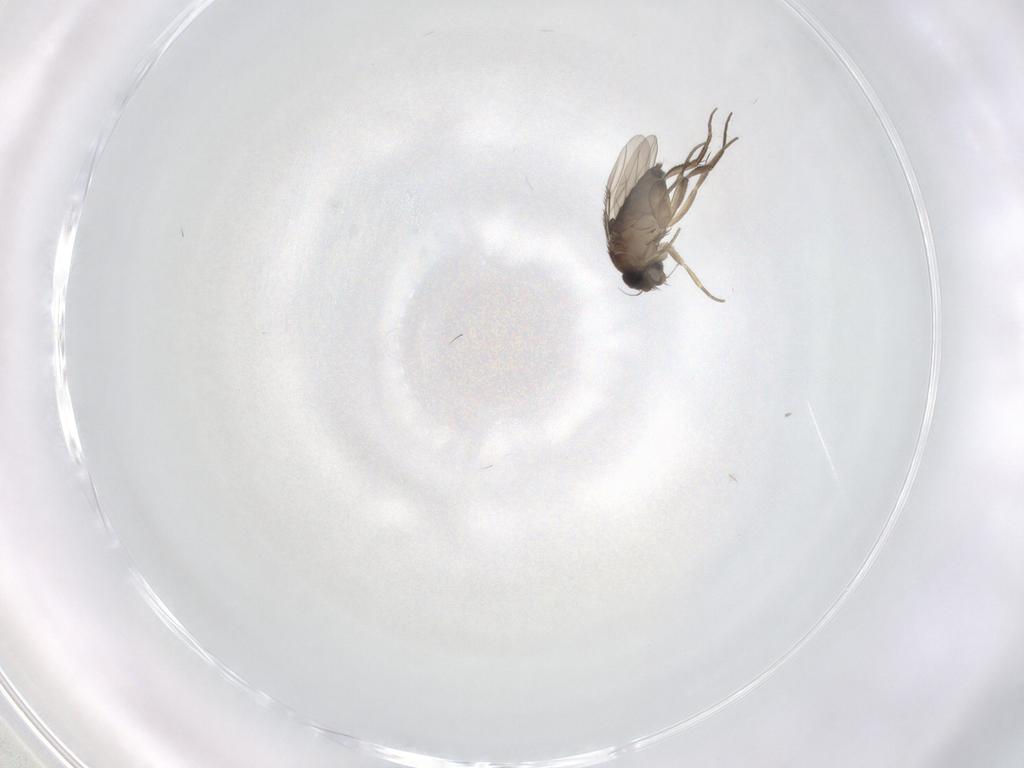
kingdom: Animalia
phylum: Arthropoda
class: Insecta
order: Diptera
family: Phoridae
